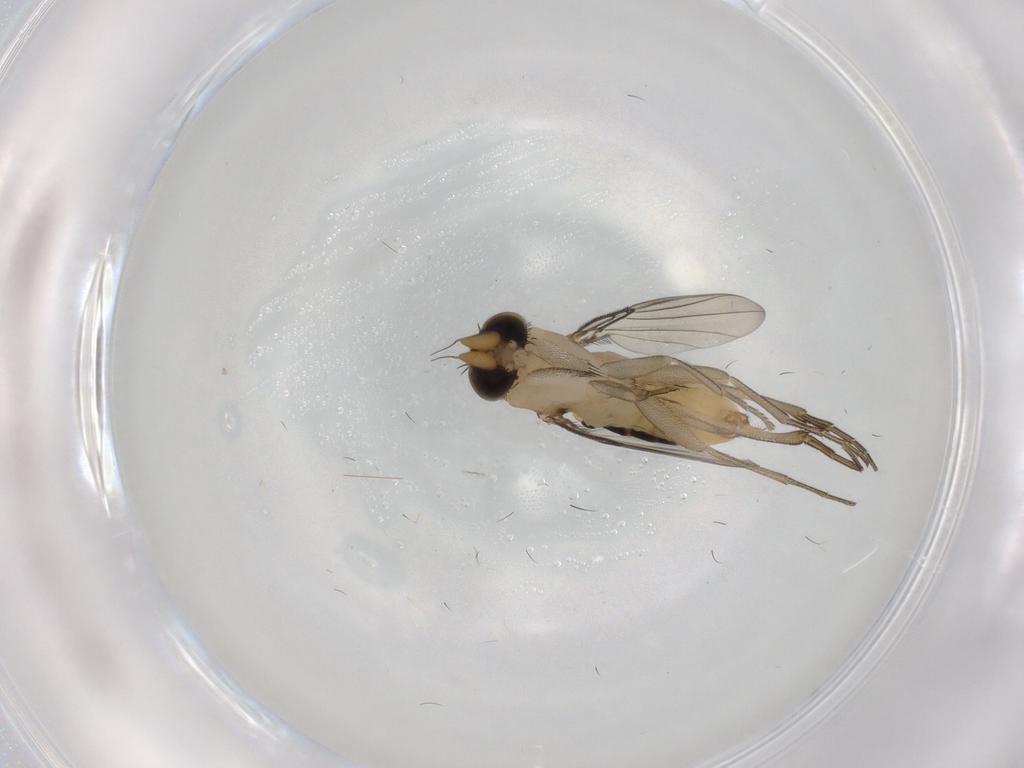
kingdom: Animalia
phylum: Arthropoda
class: Insecta
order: Diptera
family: Phoridae
